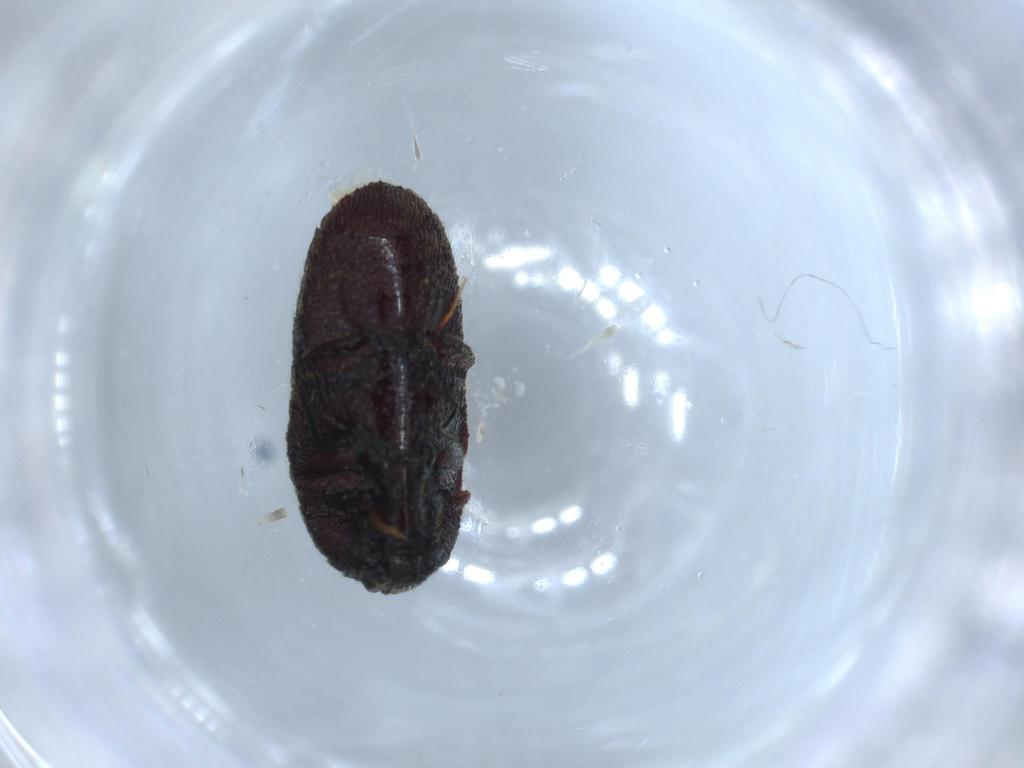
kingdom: Animalia
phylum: Arthropoda
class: Insecta
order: Coleoptera
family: Throscidae
